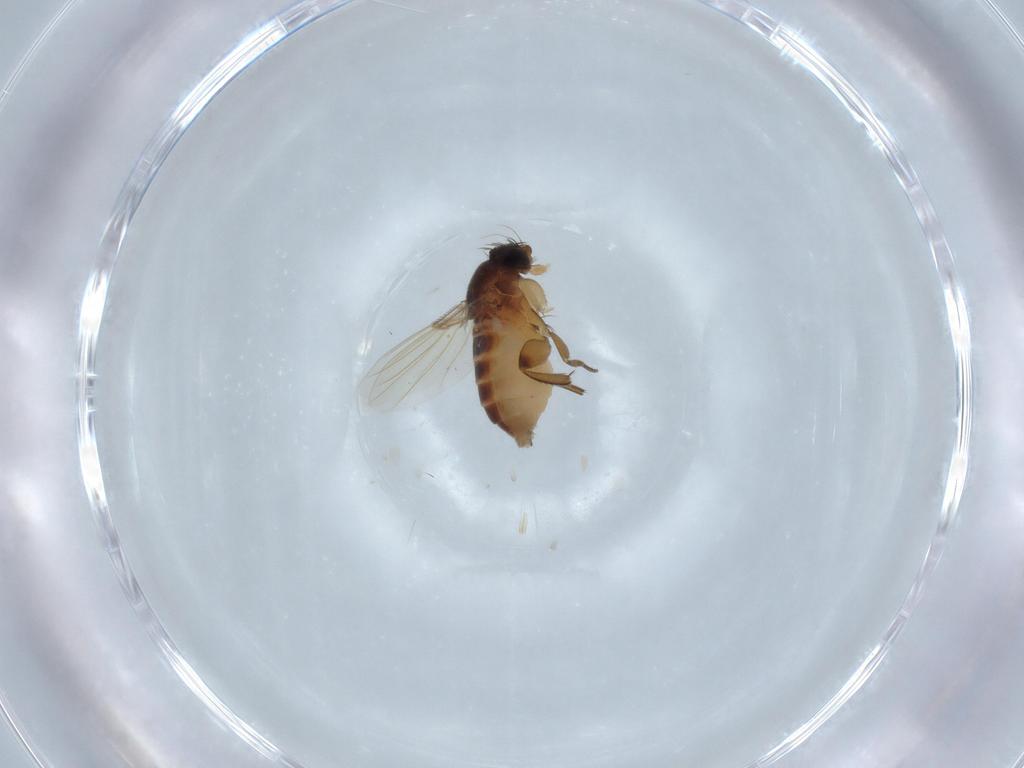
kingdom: Animalia
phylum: Arthropoda
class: Insecta
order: Diptera
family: Phoridae
